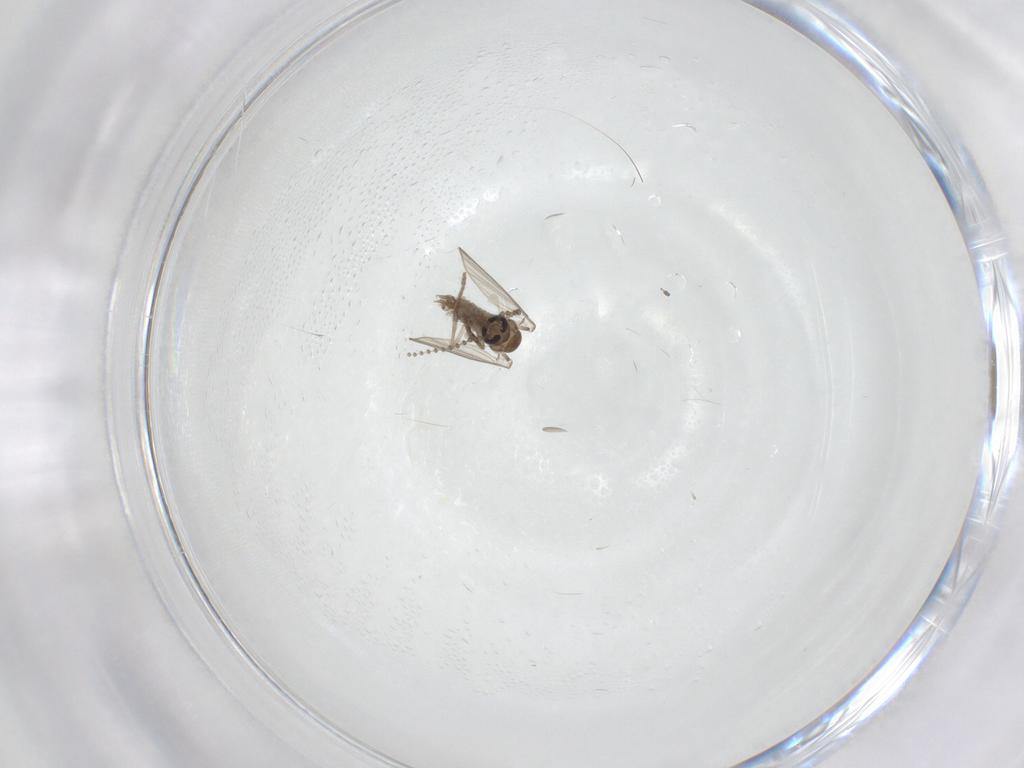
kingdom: Animalia
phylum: Arthropoda
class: Insecta
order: Diptera
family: Psychodidae
